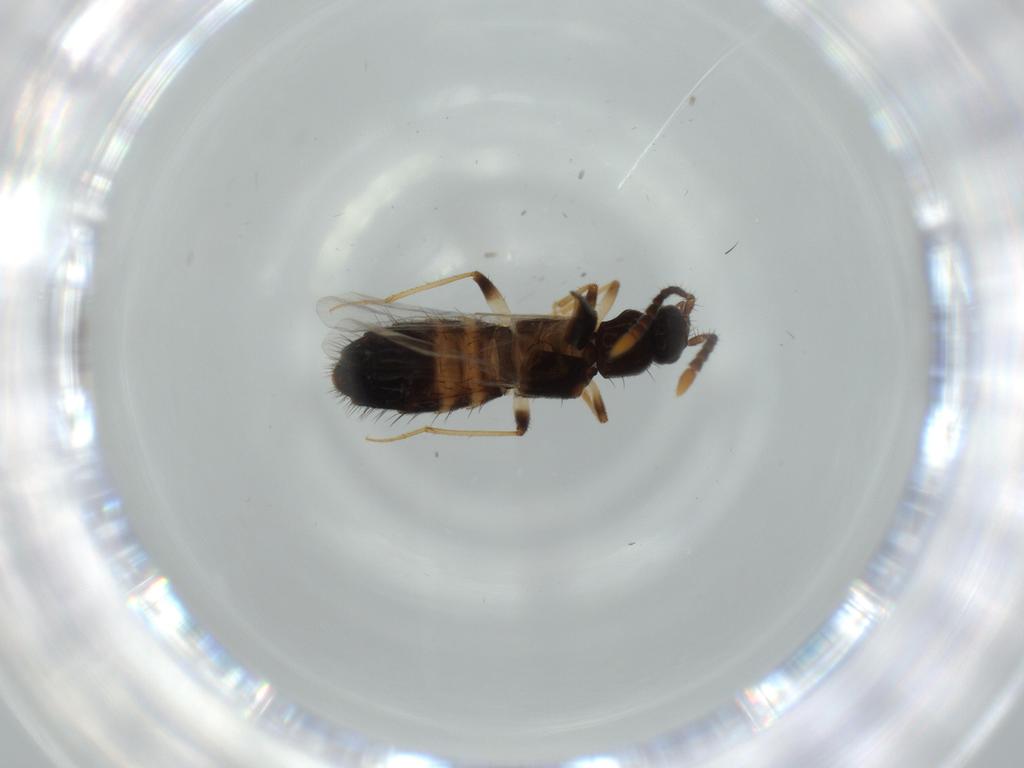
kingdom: Animalia
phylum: Arthropoda
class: Insecta
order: Coleoptera
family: Staphylinidae
